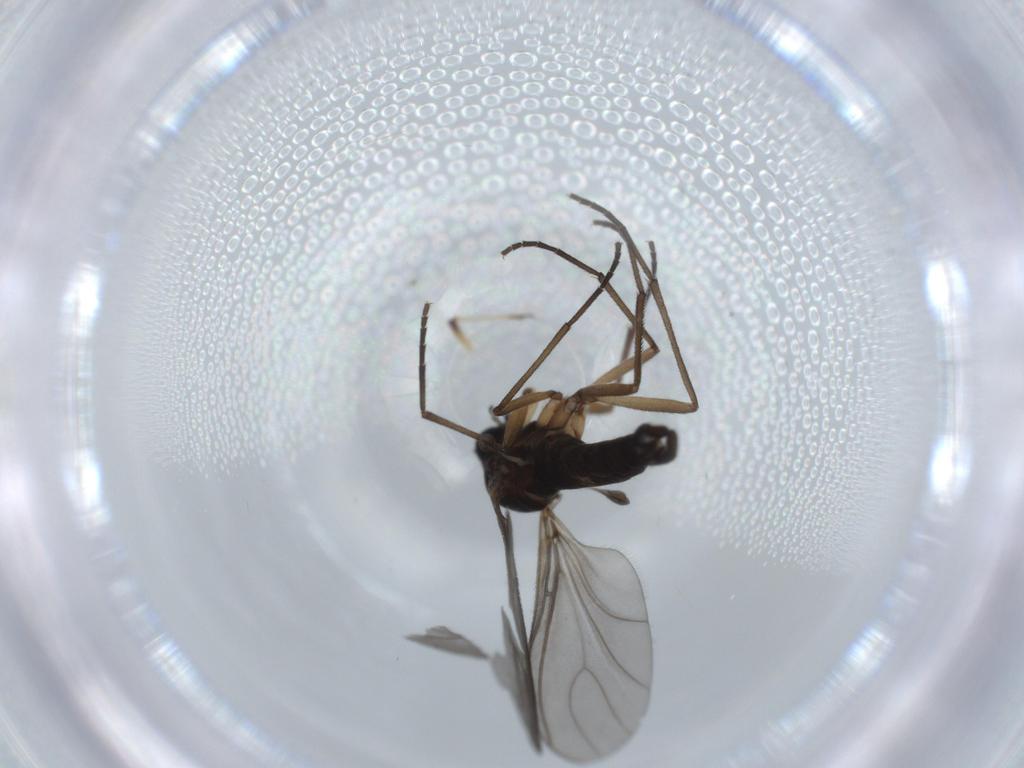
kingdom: Animalia
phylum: Arthropoda
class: Insecta
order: Diptera
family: Sciaridae
